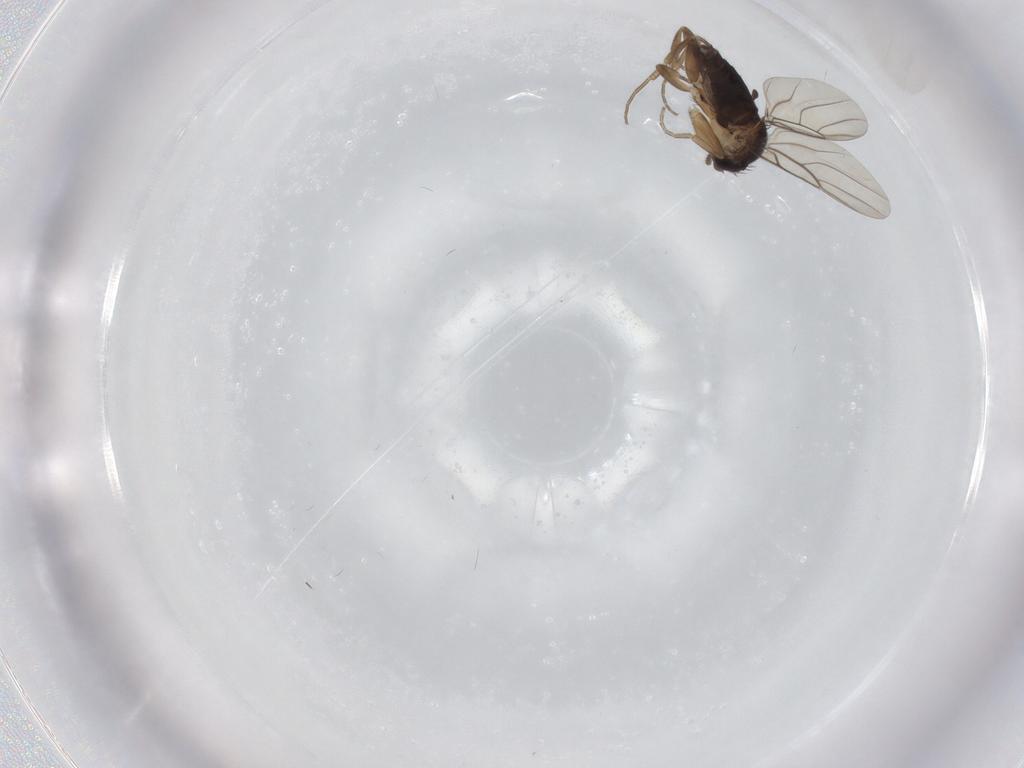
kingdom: Animalia
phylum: Arthropoda
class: Insecta
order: Diptera
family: Phoridae
